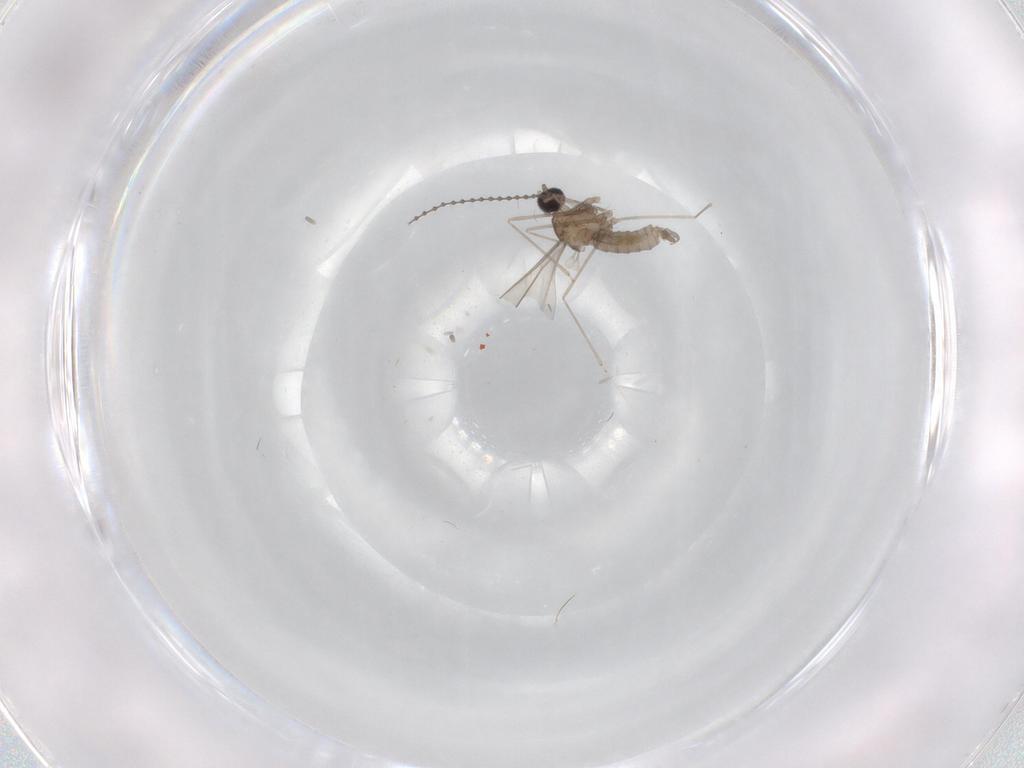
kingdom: Animalia
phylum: Arthropoda
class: Insecta
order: Diptera
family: Cecidomyiidae
